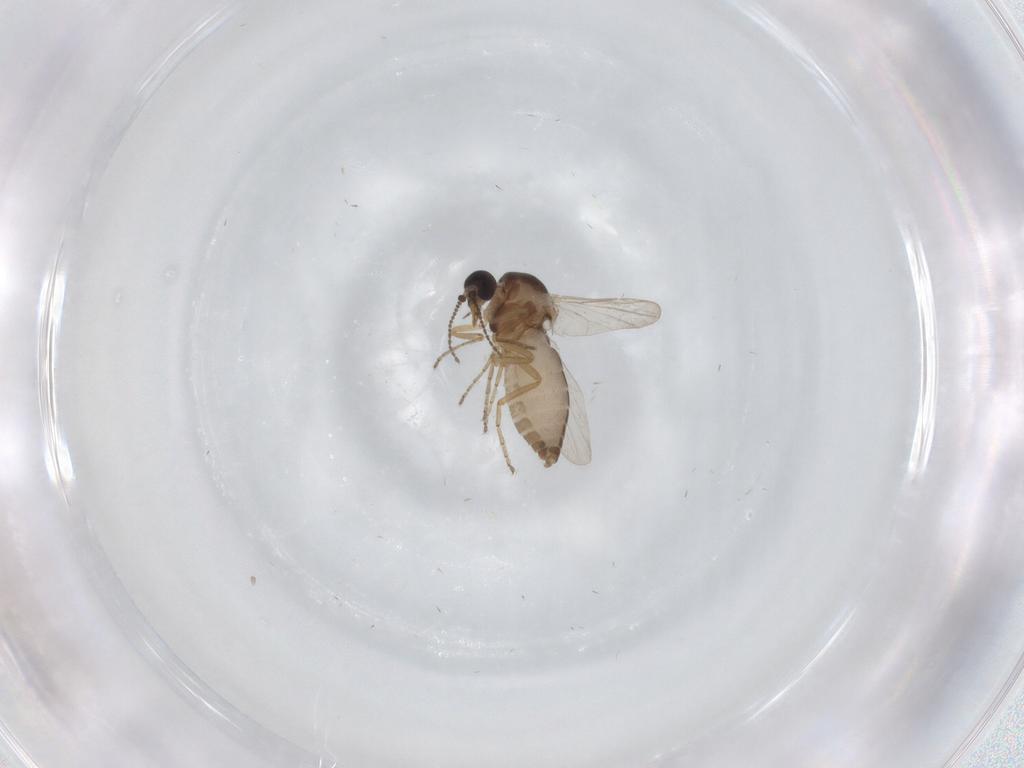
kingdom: Animalia
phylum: Arthropoda
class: Insecta
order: Diptera
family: Ceratopogonidae
